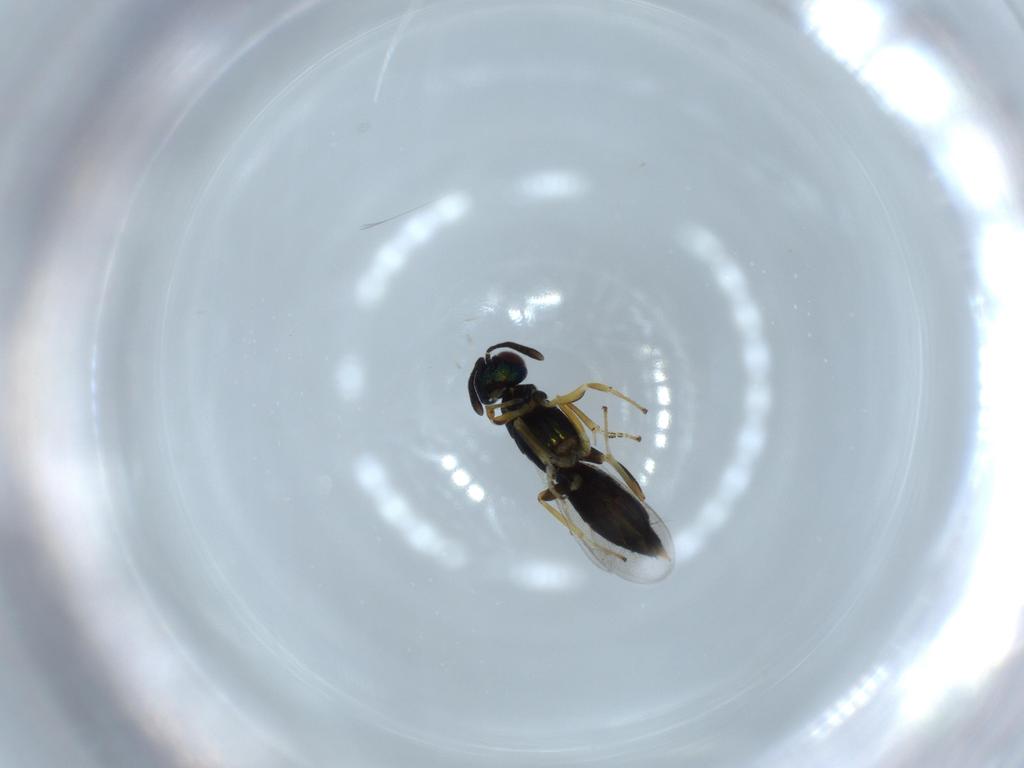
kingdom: Animalia
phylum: Arthropoda
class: Insecta
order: Hymenoptera
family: Eupelmidae
